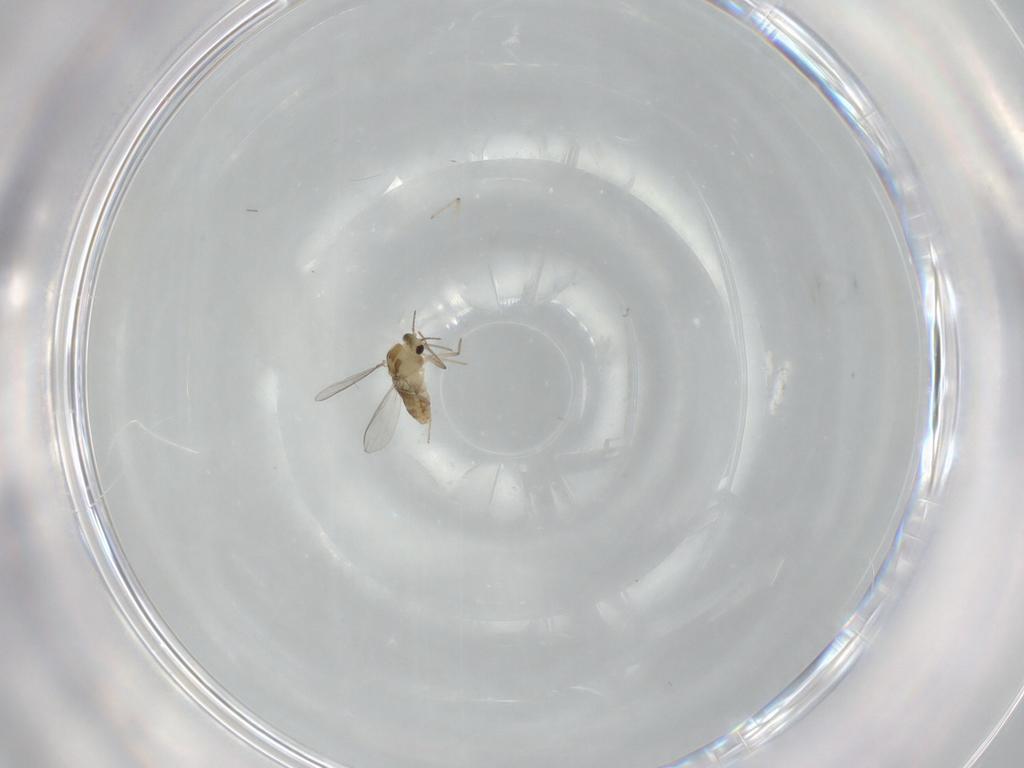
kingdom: Animalia
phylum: Arthropoda
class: Insecta
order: Diptera
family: Chironomidae
